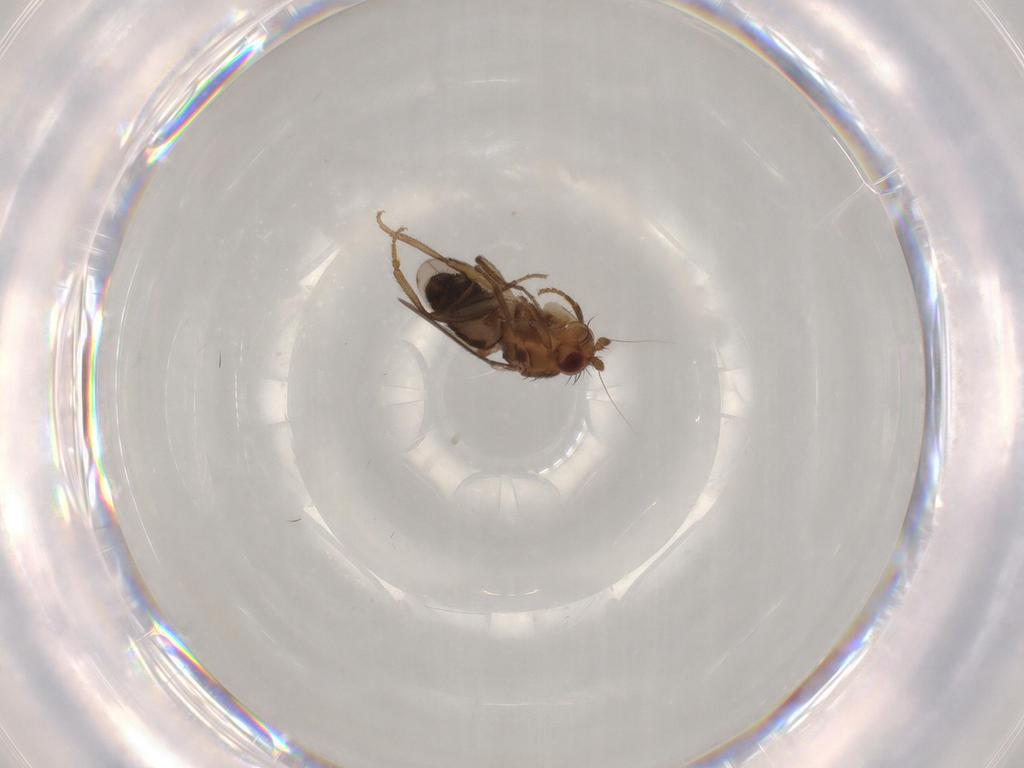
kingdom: Animalia
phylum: Arthropoda
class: Insecta
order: Diptera
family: Sphaeroceridae
